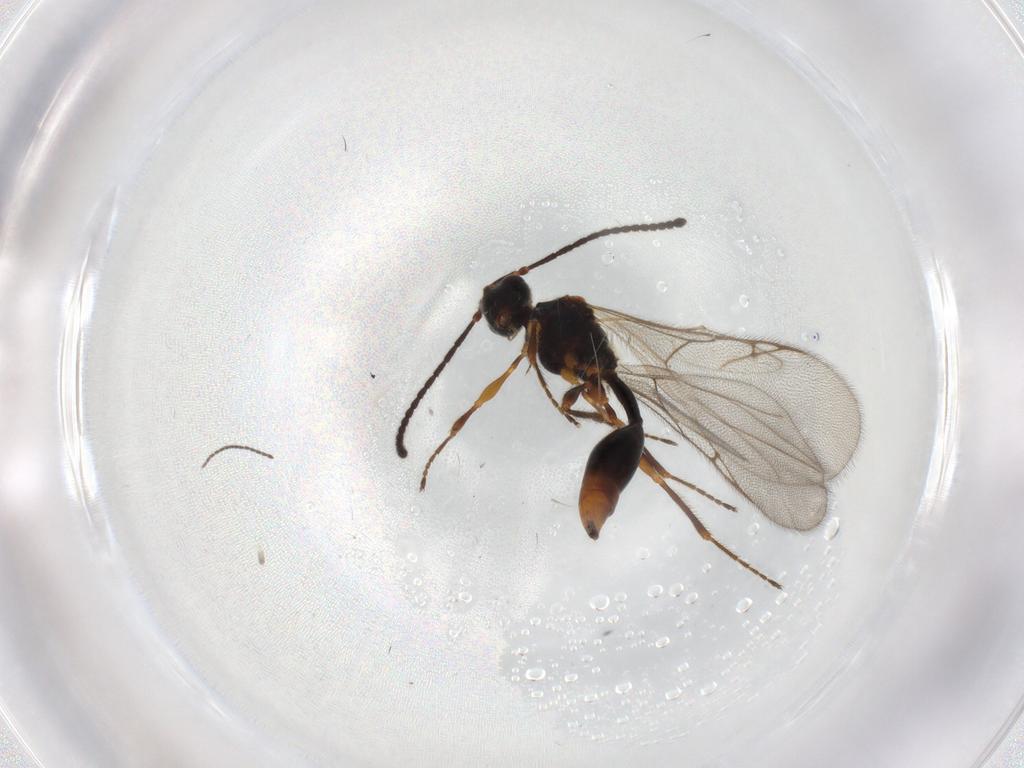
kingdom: Animalia
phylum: Arthropoda
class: Insecta
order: Hymenoptera
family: Diapriidae
